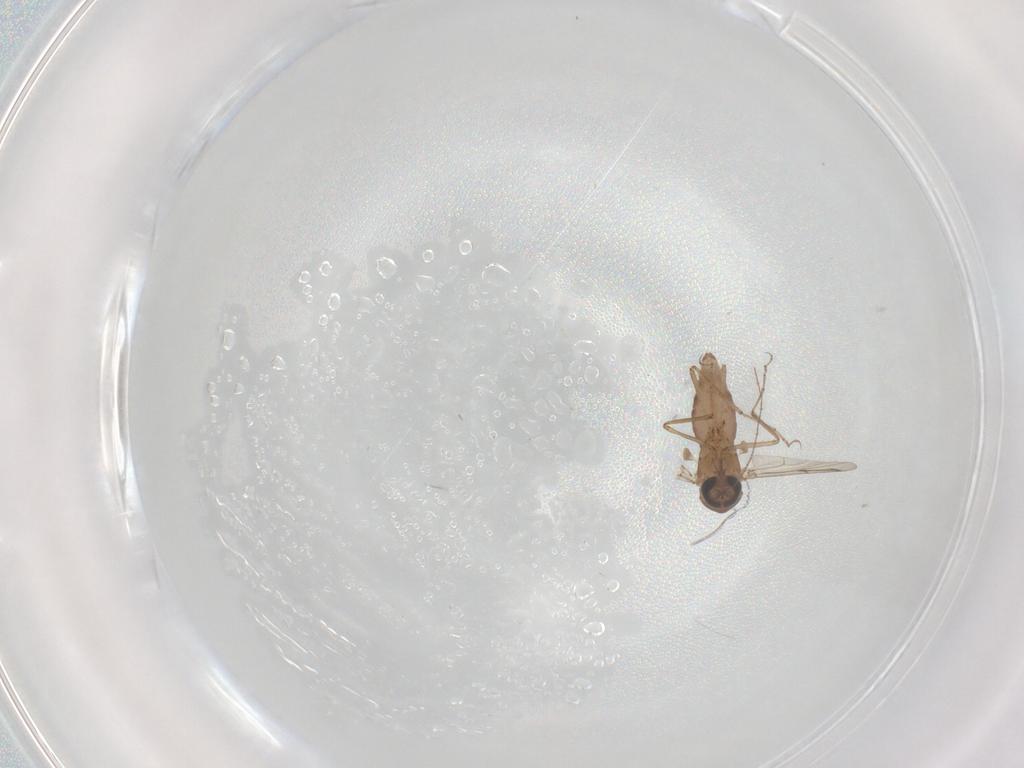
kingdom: Animalia
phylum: Arthropoda
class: Insecta
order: Diptera
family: Ceratopogonidae
